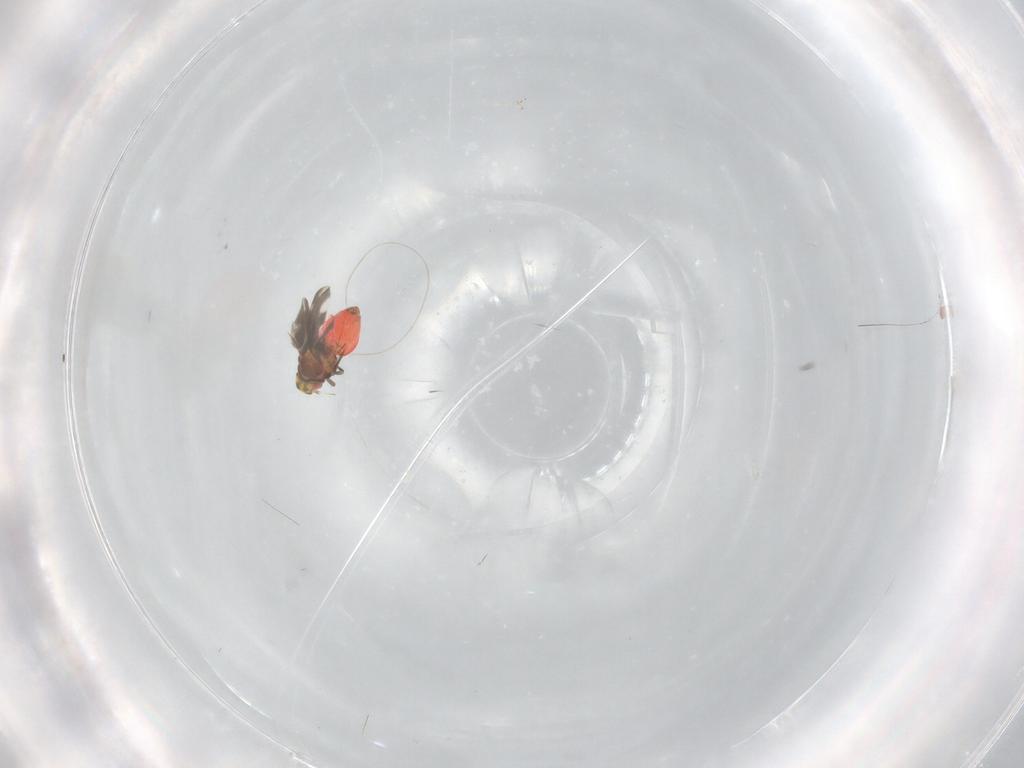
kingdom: Animalia
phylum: Arthropoda
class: Insecta
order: Hemiptera
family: Aleyrodidae
